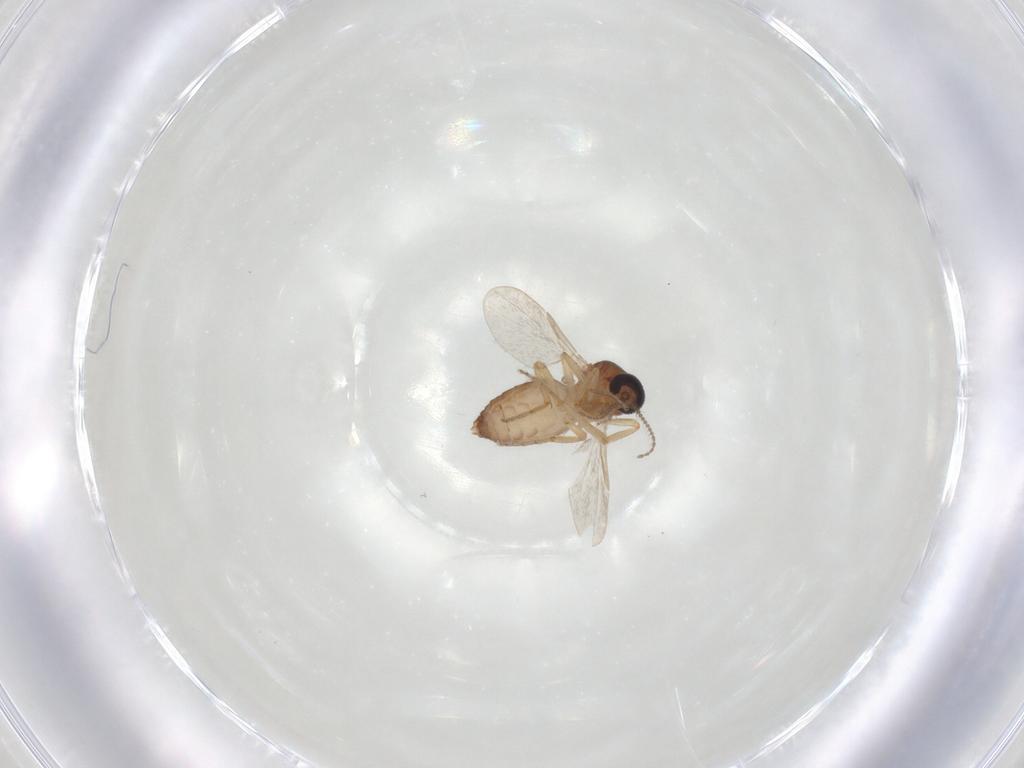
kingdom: Animalia
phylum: Arthropoda
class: Insecta
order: Diptera
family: Ceratopogonidae
